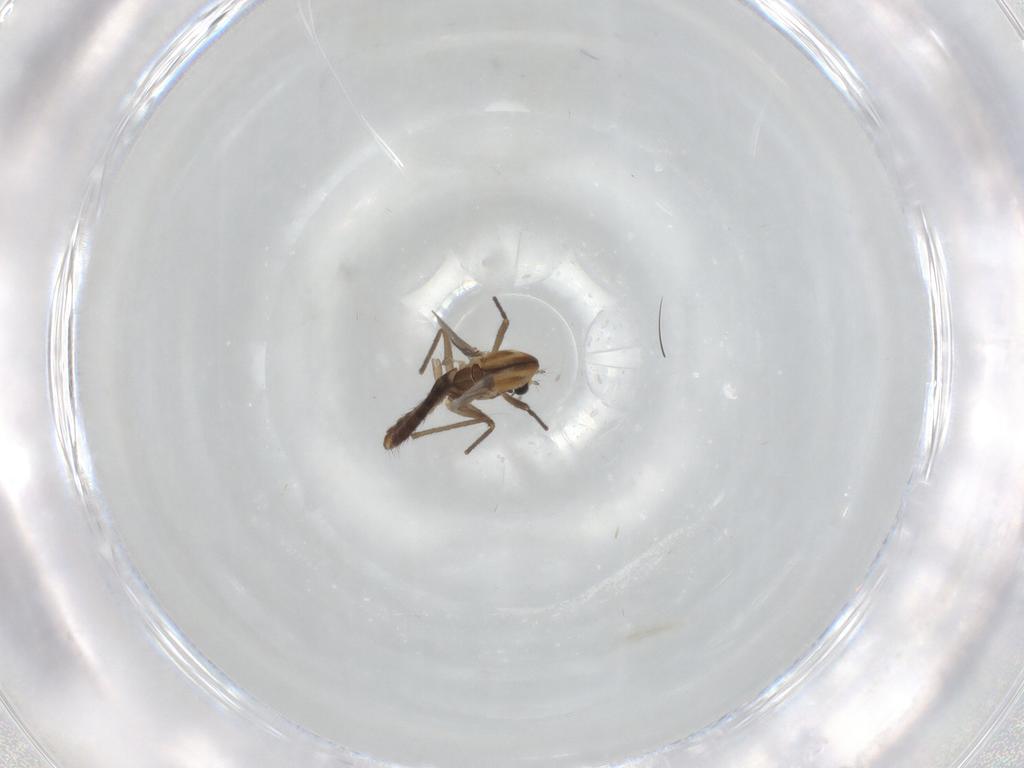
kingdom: Animalia
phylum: Arthropoda
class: Insecta
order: Diptera
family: Chironomidae
